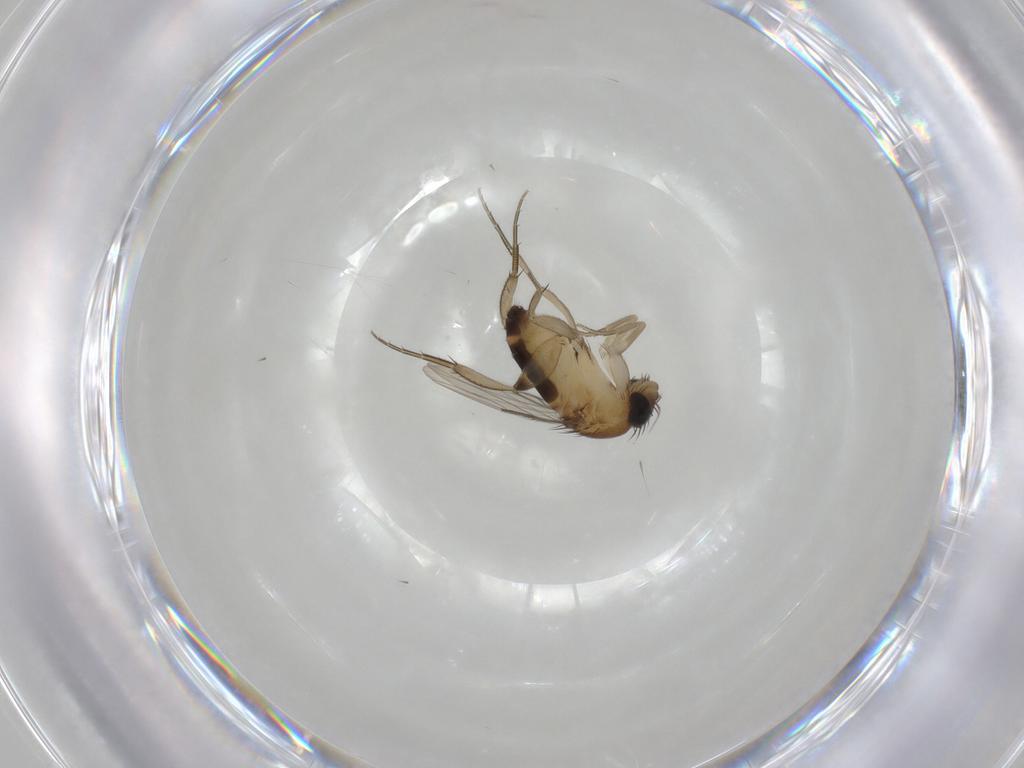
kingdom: Animalia
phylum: Arthropoda
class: Insecta
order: Diptera
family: Phoridae
